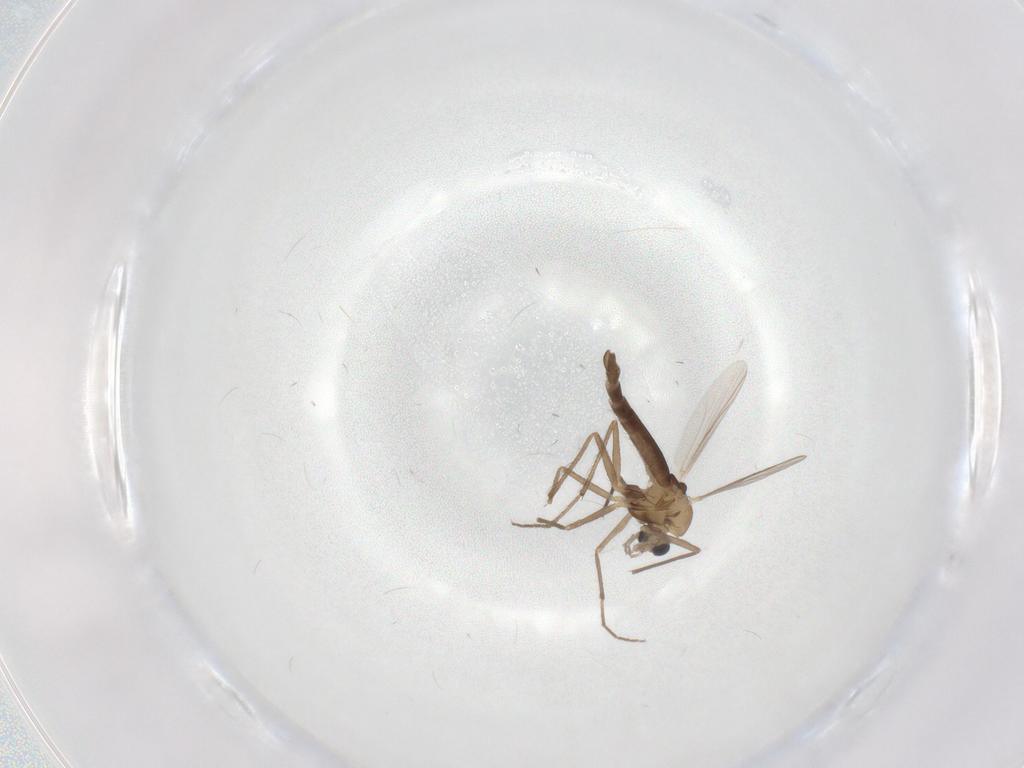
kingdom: Animalia
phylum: Arthropoda
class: Insecta
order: Diptera
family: Chironomidae
